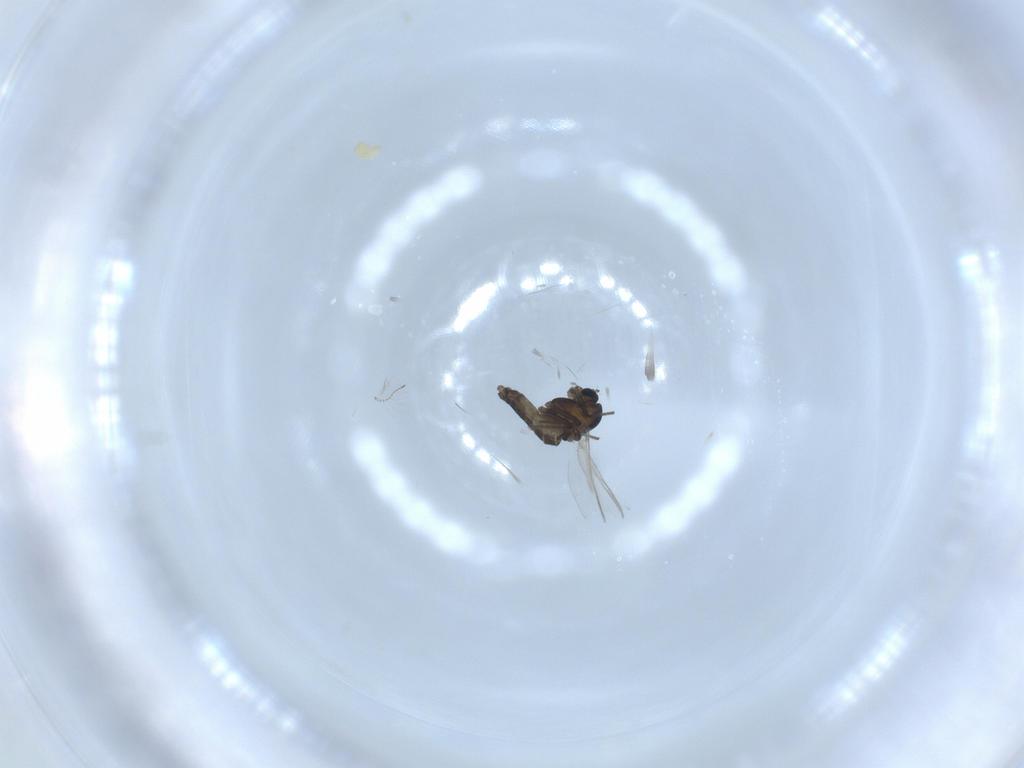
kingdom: Animalia
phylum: Arthropoda
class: Insecta
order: Diptera
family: Chironomidae
